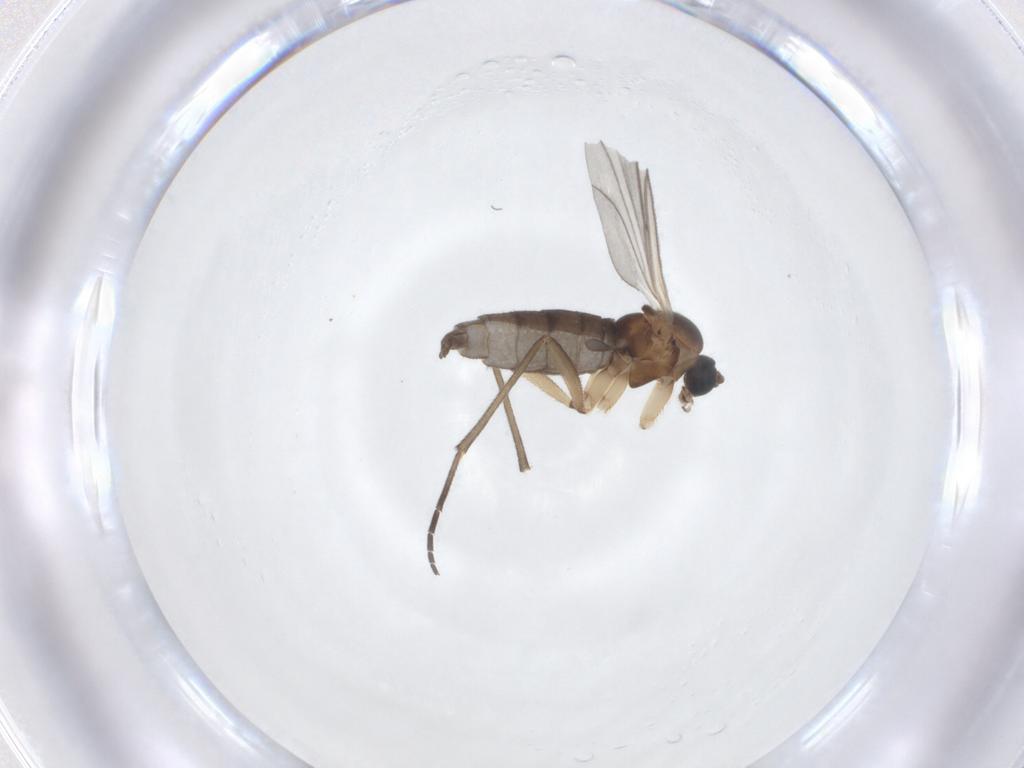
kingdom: Animalia
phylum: Arthropoda
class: Insecta
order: Diptera
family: Sciaridae
